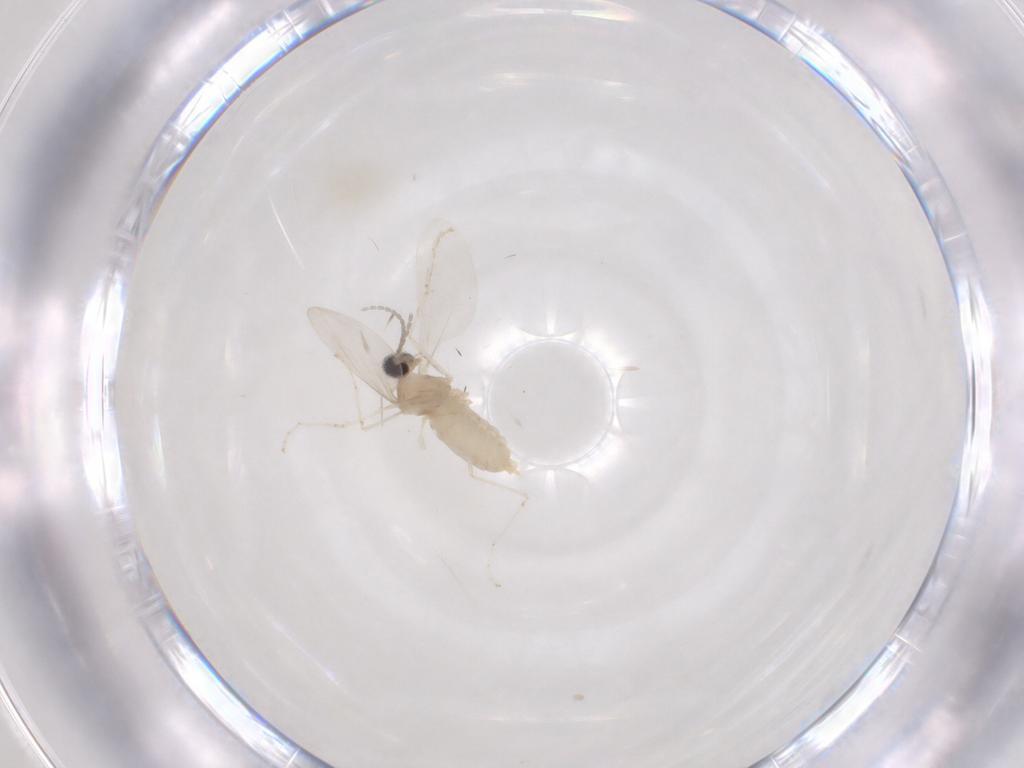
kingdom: Animalia
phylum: Arthropoda
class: Insecta
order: Diptera
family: Cecidomyiidae
